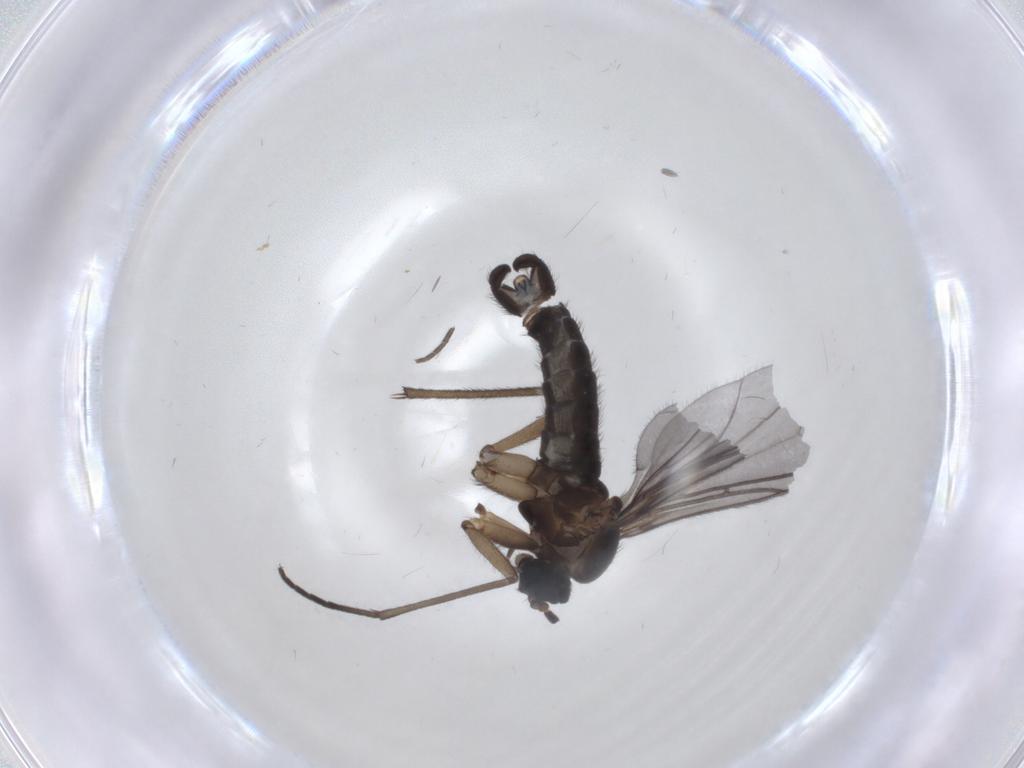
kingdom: Animalia
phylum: Arthropoda
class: Insecta
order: Diptera
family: Sciaridae
